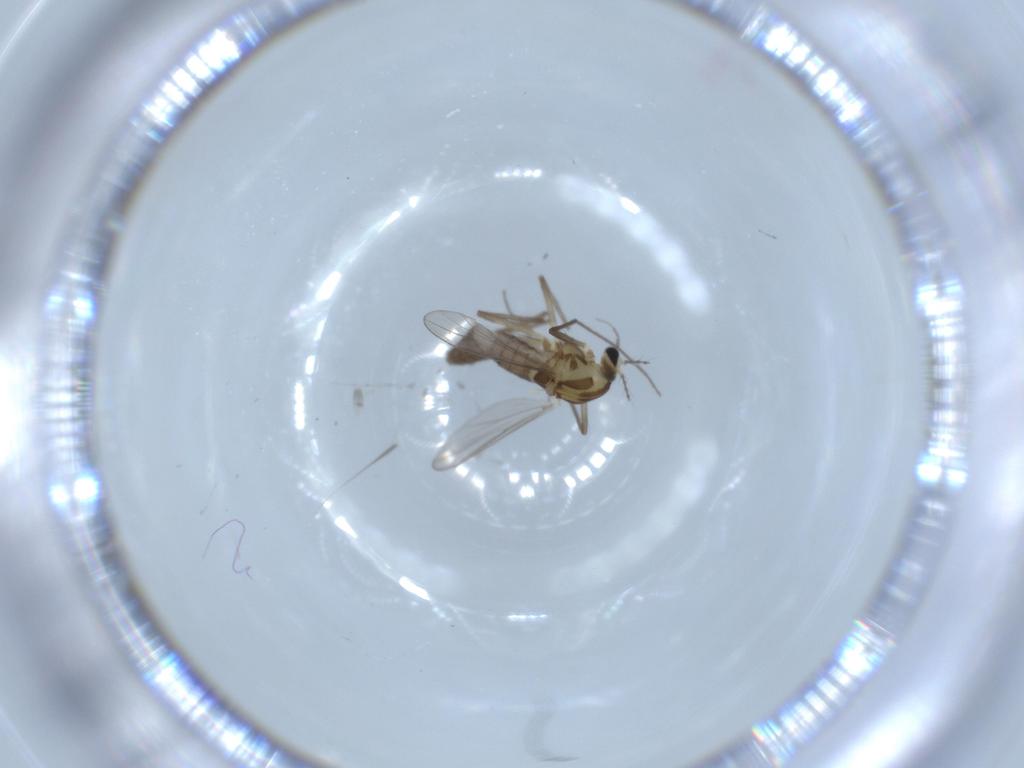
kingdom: Animalia
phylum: Arthropoda
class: Insecta
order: Diptera
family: Chironomidae
